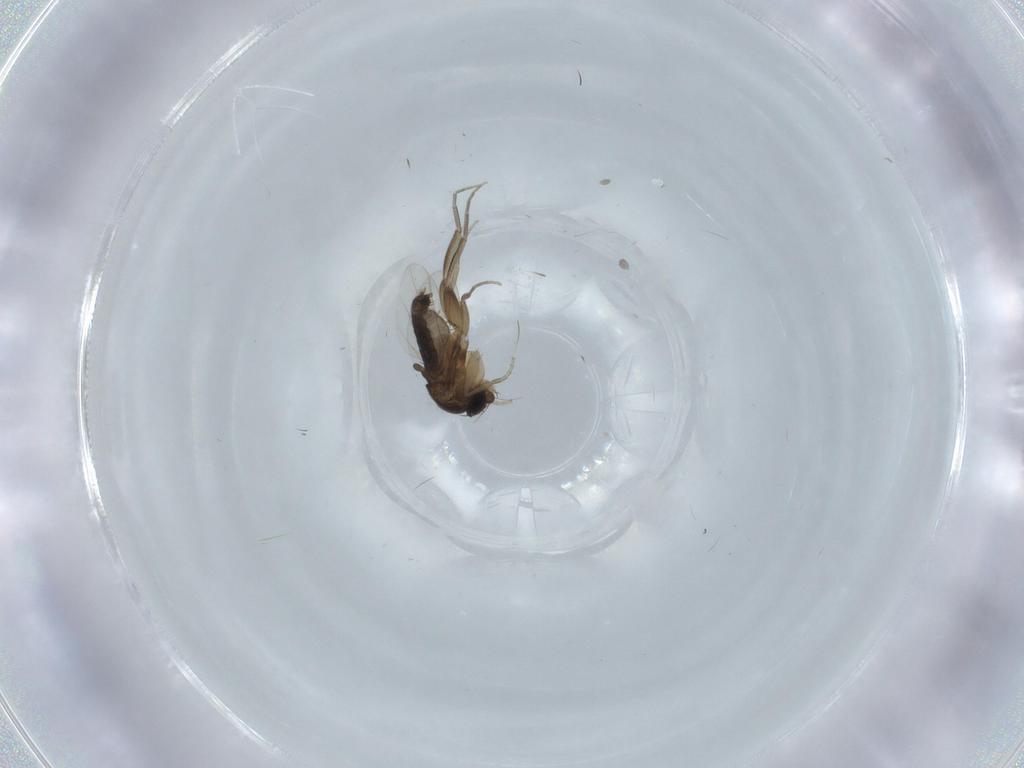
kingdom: Animalia
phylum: Arthropoda
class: Insecta
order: Diptera
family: Phoridae
